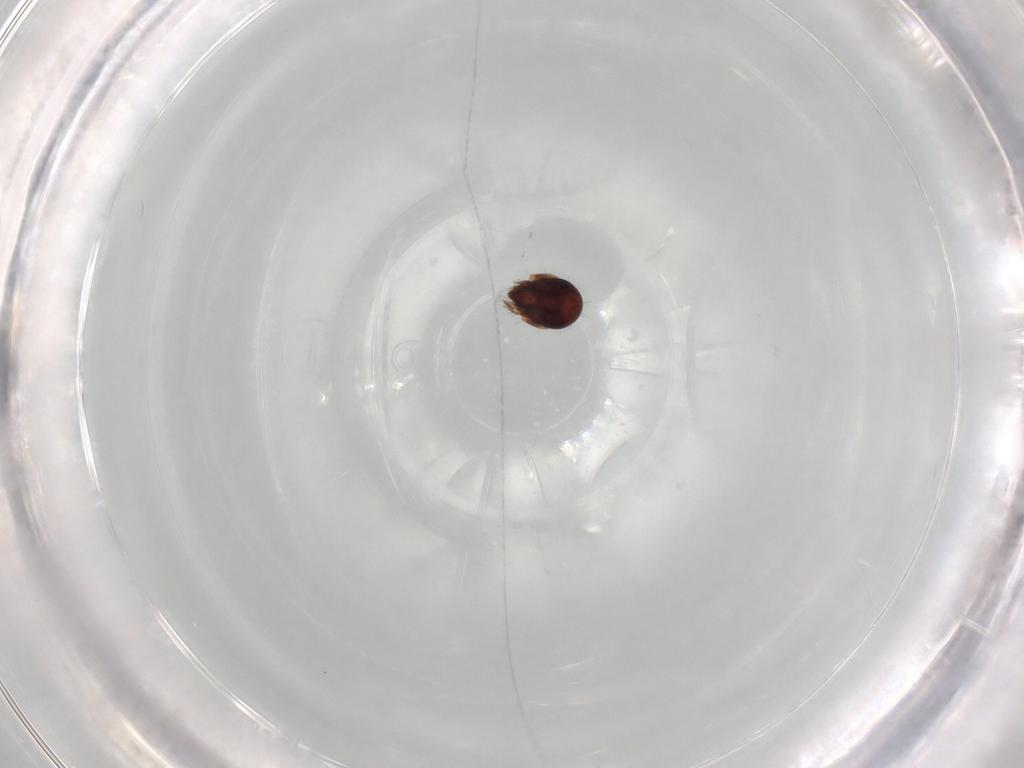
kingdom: Animalia
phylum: Arthropoda
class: Arachnida
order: Sarcoptiformes
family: Humerobatidae
